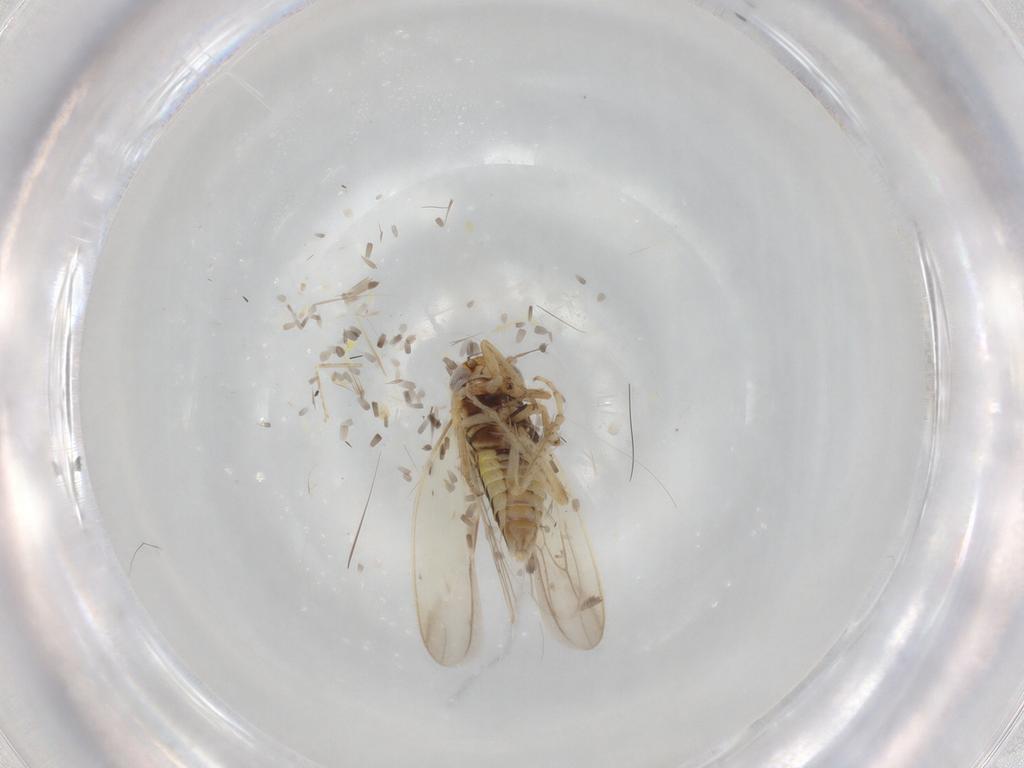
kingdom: Animalia
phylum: Arthropoda
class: Insecta
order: Hemiptera
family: Cicadellidae
